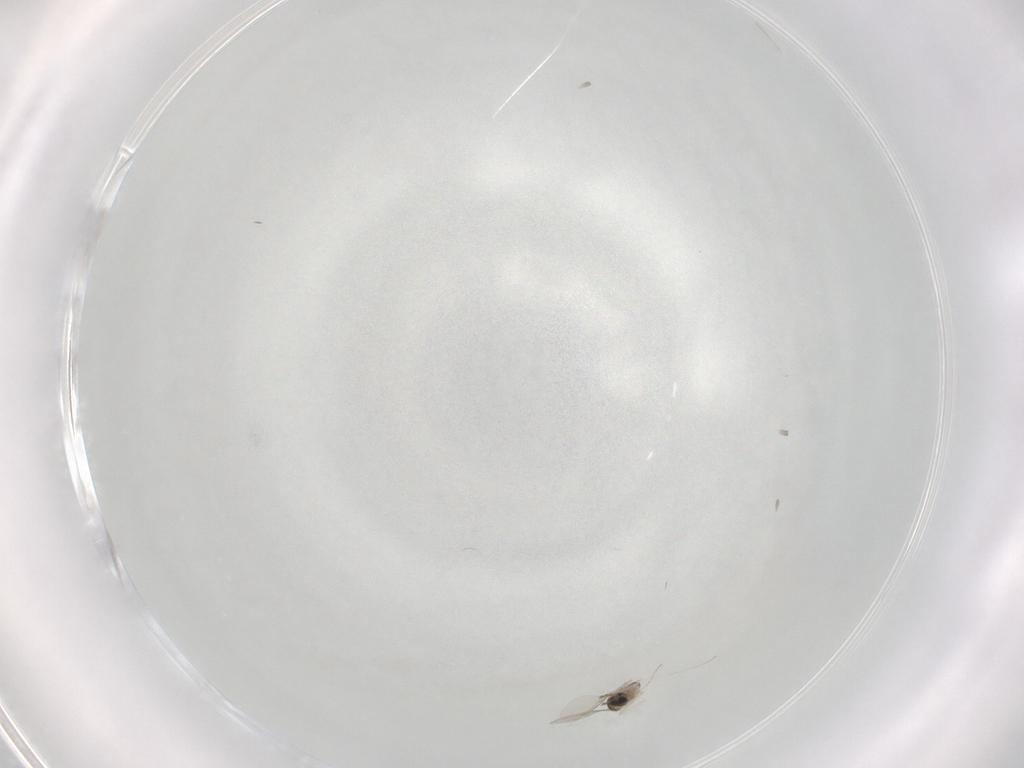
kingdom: Animalia
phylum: Arthropoda
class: Insecta
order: Diptera
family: Cecidomyiidae
